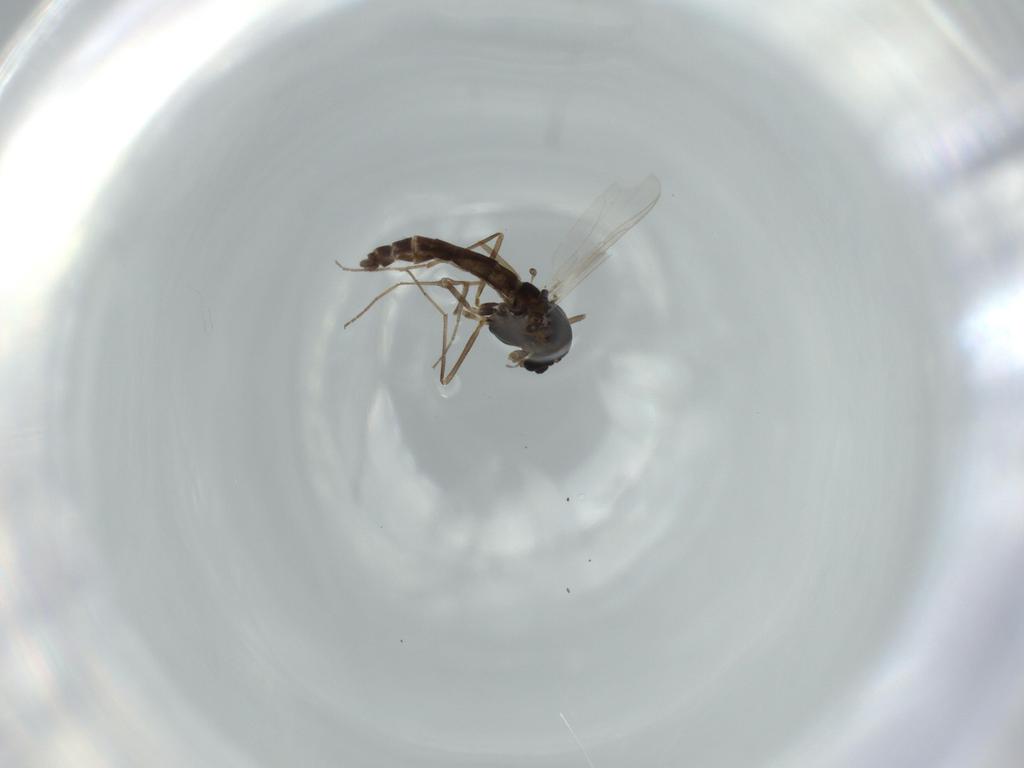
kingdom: Animalia
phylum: Arthropoda
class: Insecta
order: Diptera
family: Chironomidae
